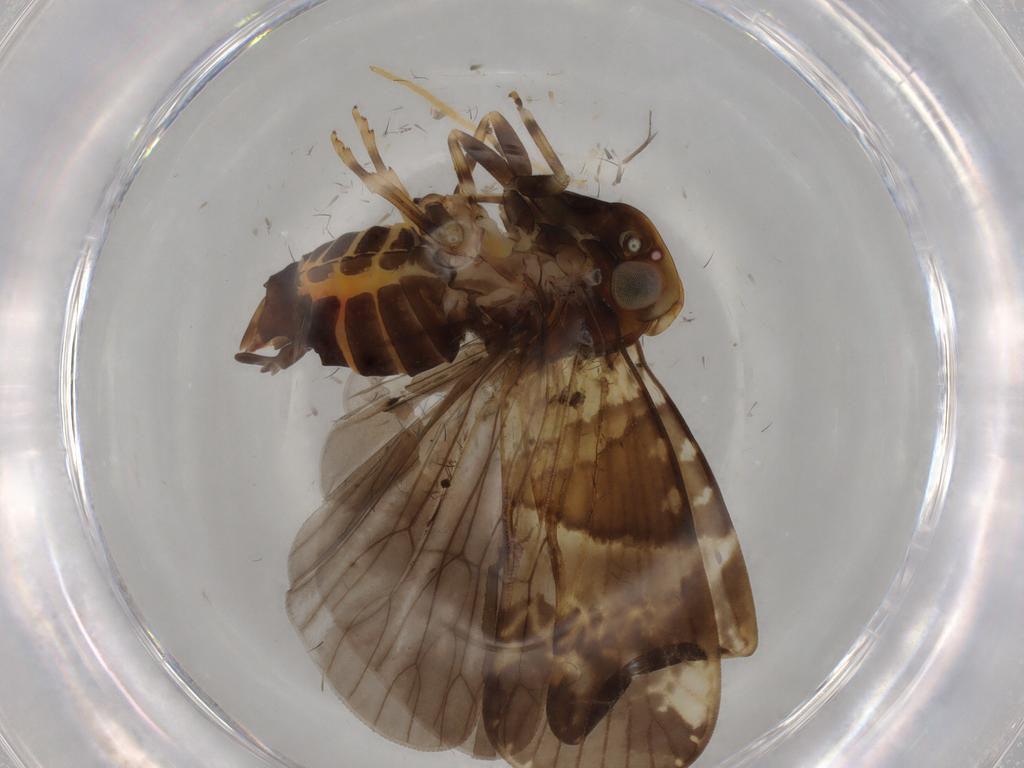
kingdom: Animalia
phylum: Arthropoda
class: Insecta
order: Hemiptera
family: Cixiidae
